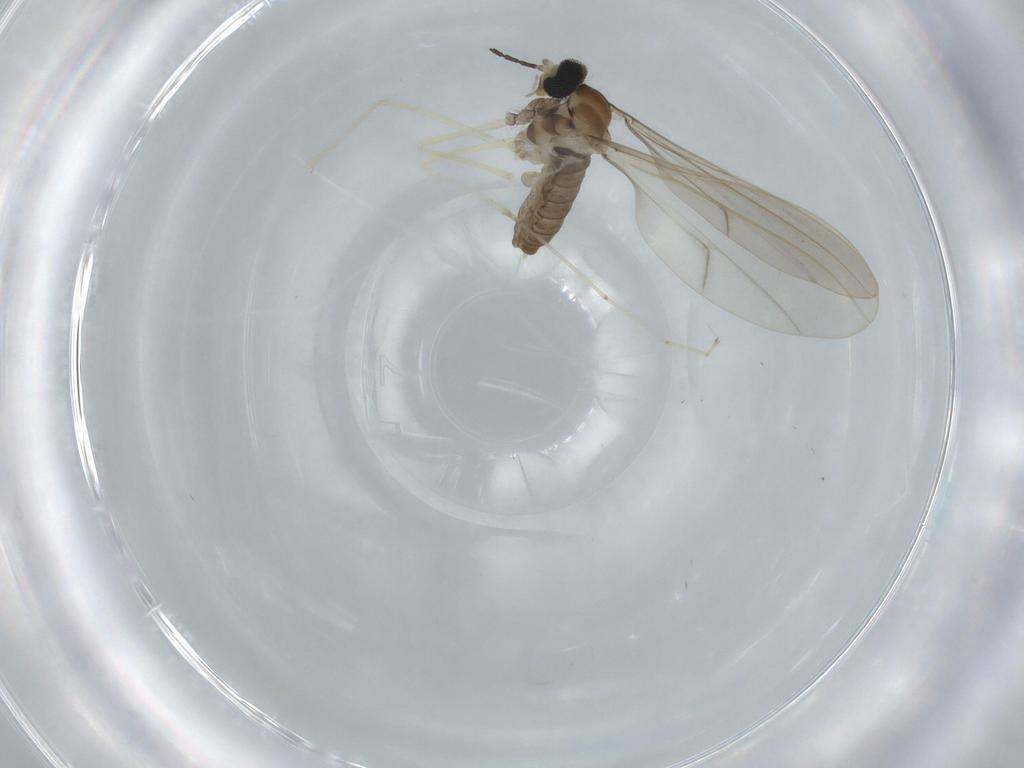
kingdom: Animalia
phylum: Arthropoda
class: Insecta
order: Diptera
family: Cecidomyiidae
